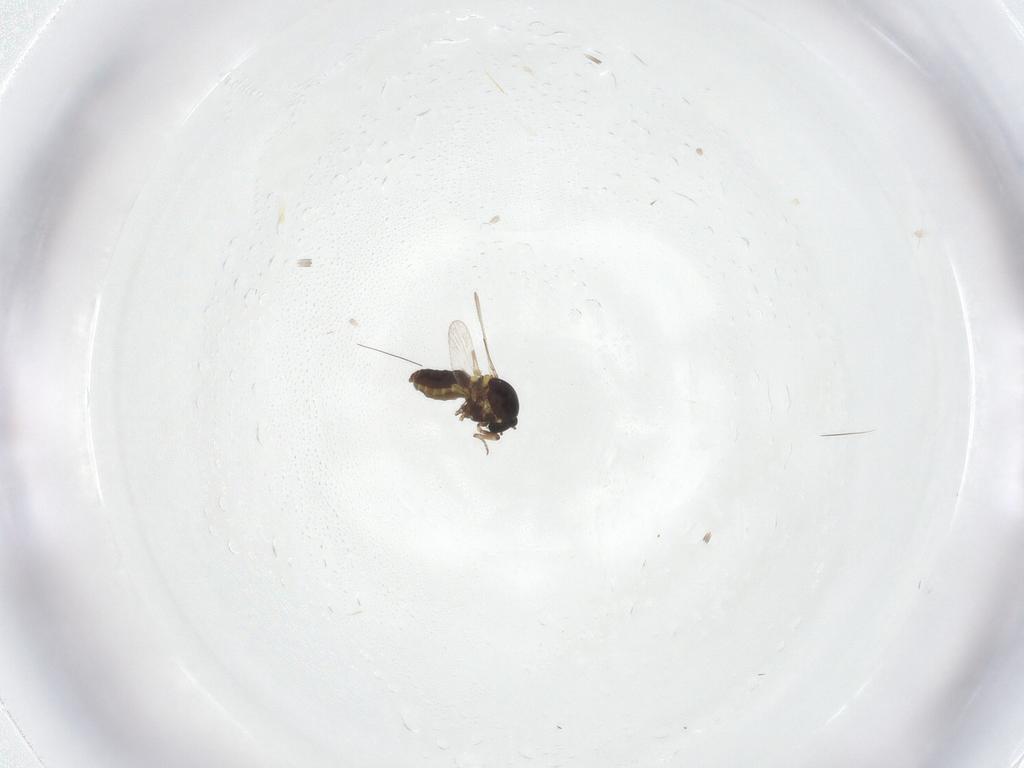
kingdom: Animalia
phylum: Arthropoda
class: Insecta
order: Diptera
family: Ceratopogonidae
